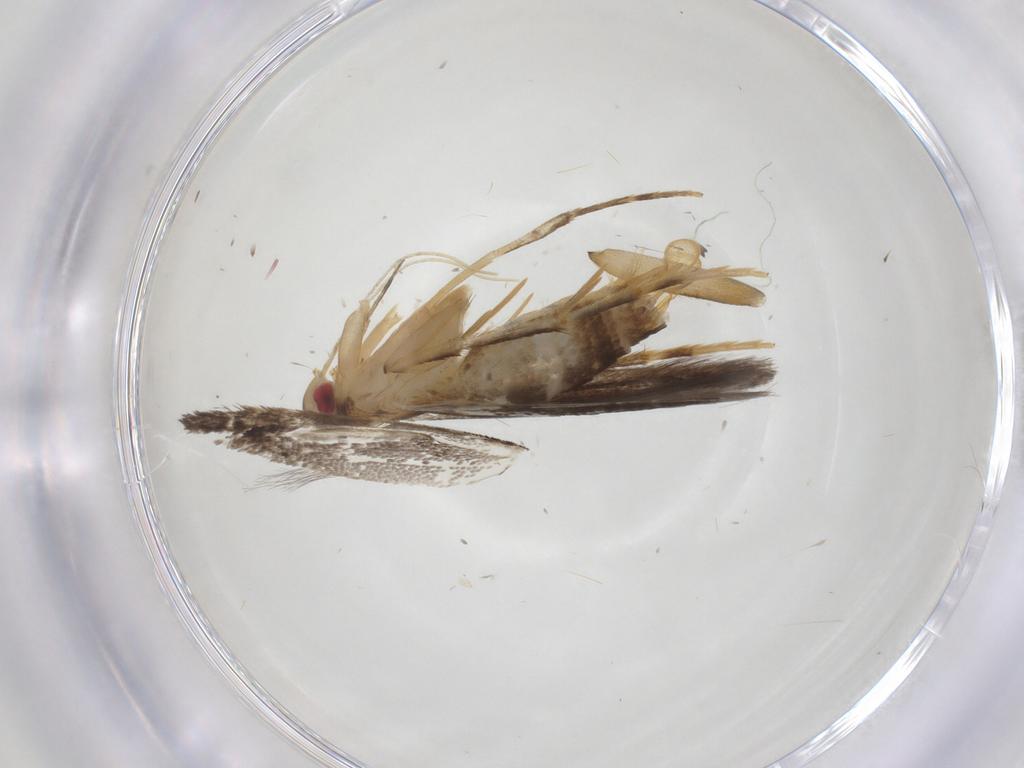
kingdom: Animalia
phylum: Arthropoda
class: Insecta
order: Lepidoptera
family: Cosmopterigidae
